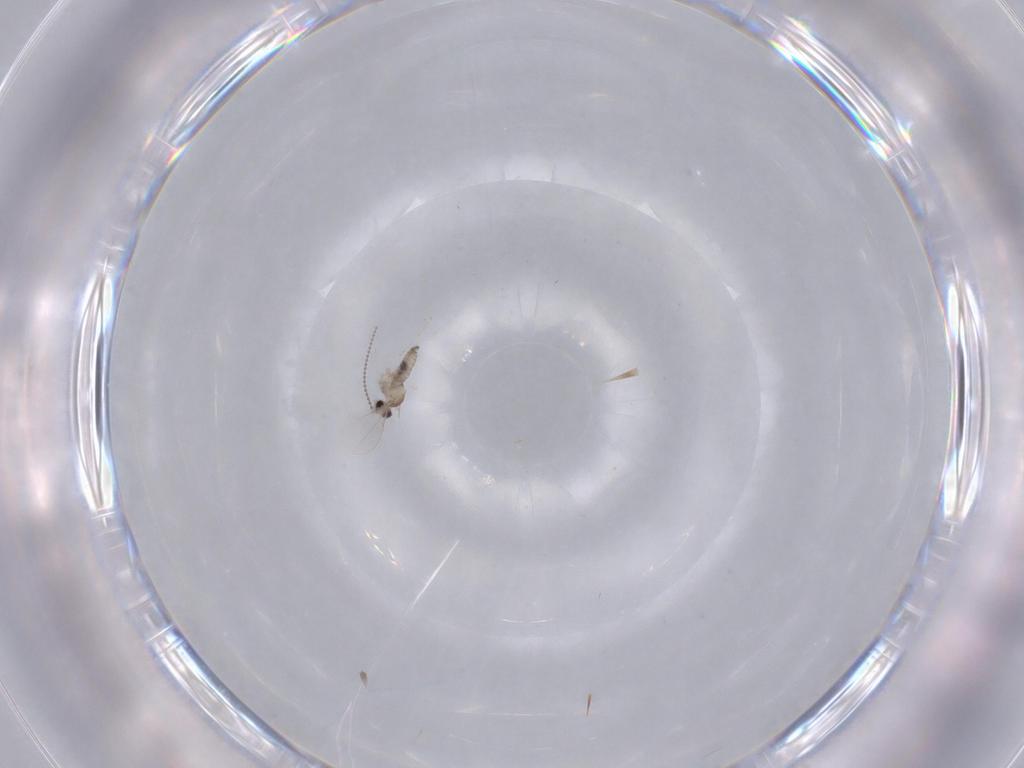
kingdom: Animalia
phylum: Arthropoda
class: Insecta
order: Diptera
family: Cecidomyiidae
